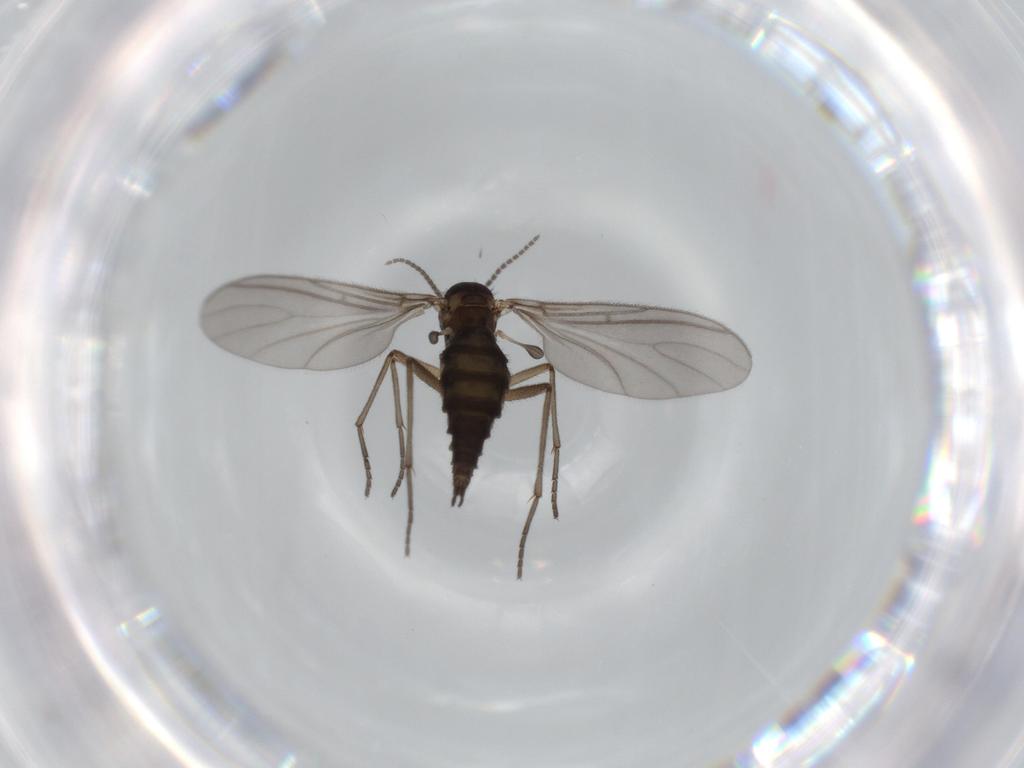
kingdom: Animalia
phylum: Arthropoda
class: Insecta
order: Diptera
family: Sciaridae
